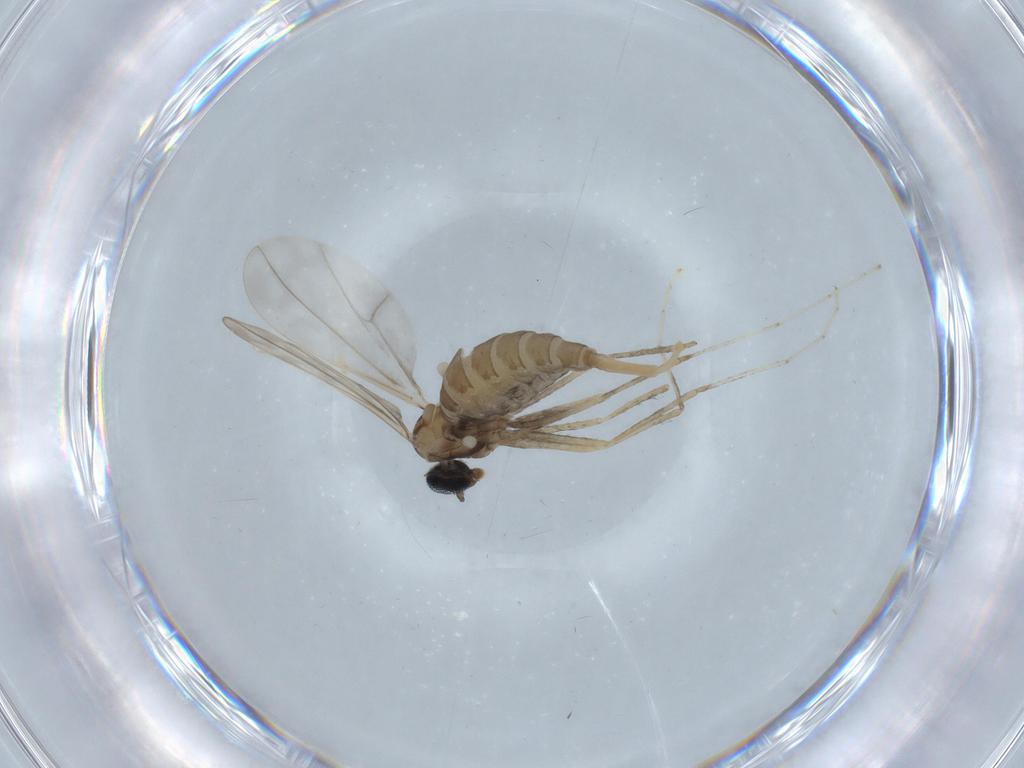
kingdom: Animalia
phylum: Arthropoda
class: Insecta
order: Diptera
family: Cecidomyiidae
